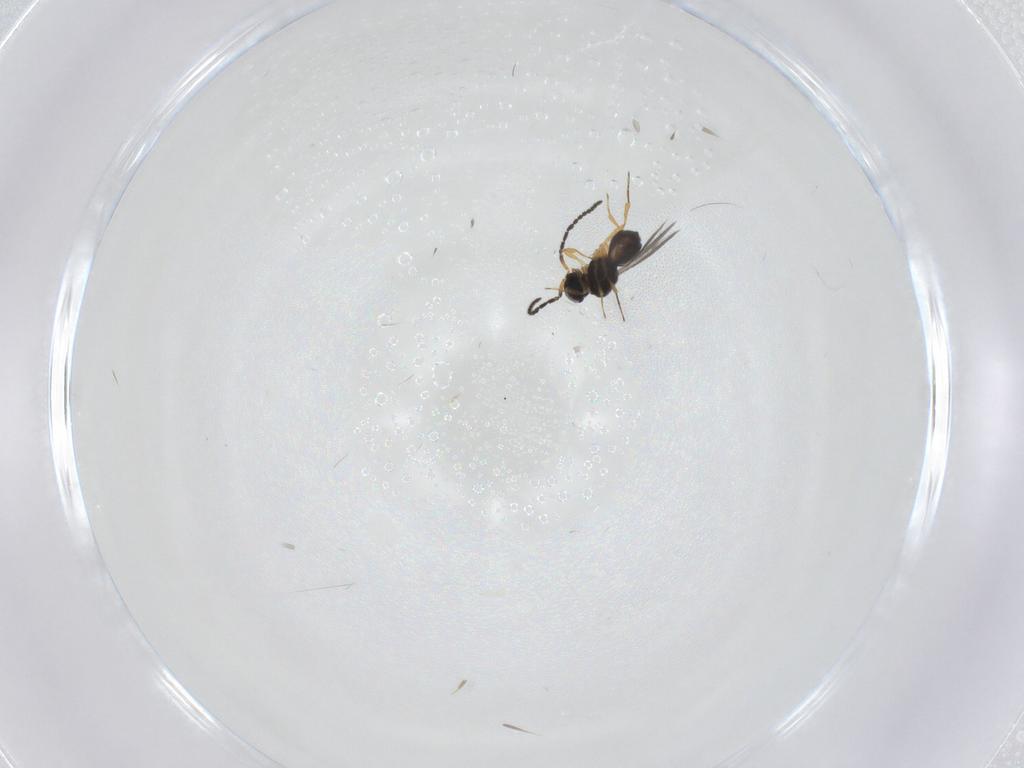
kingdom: Animalia
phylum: Arthropoda
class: Insecta
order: Hymenoptera
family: Scelionidae
